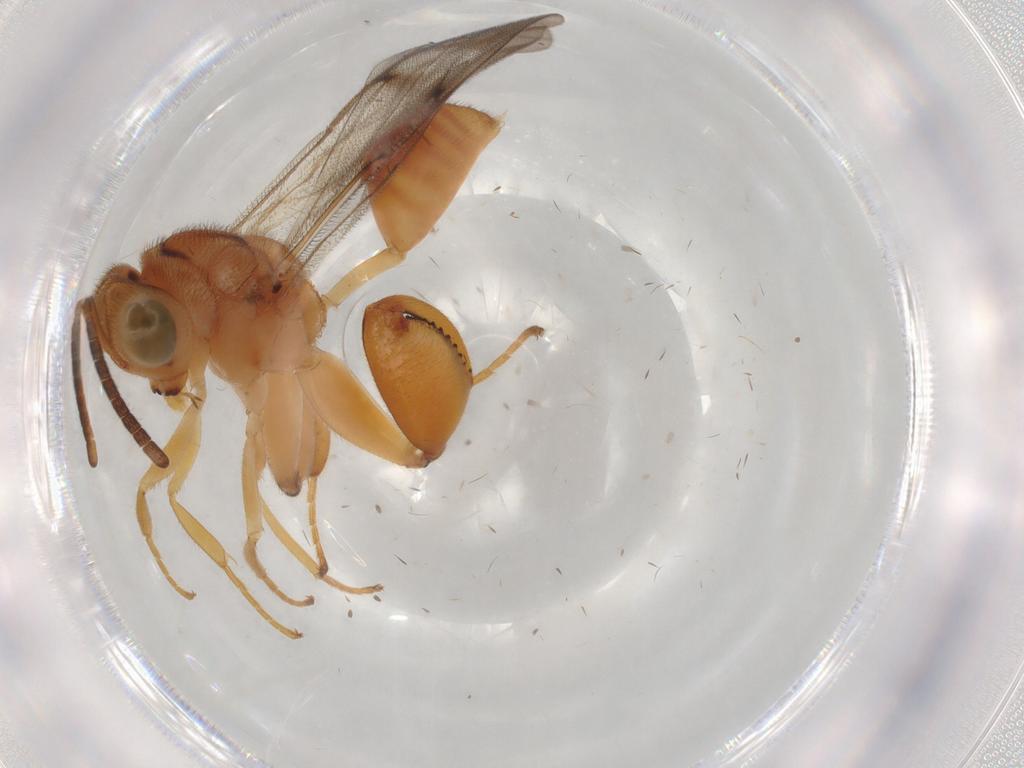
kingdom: Animalia
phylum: Arthropoda
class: Insecta
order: Hymenoptera
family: Chalcididae
